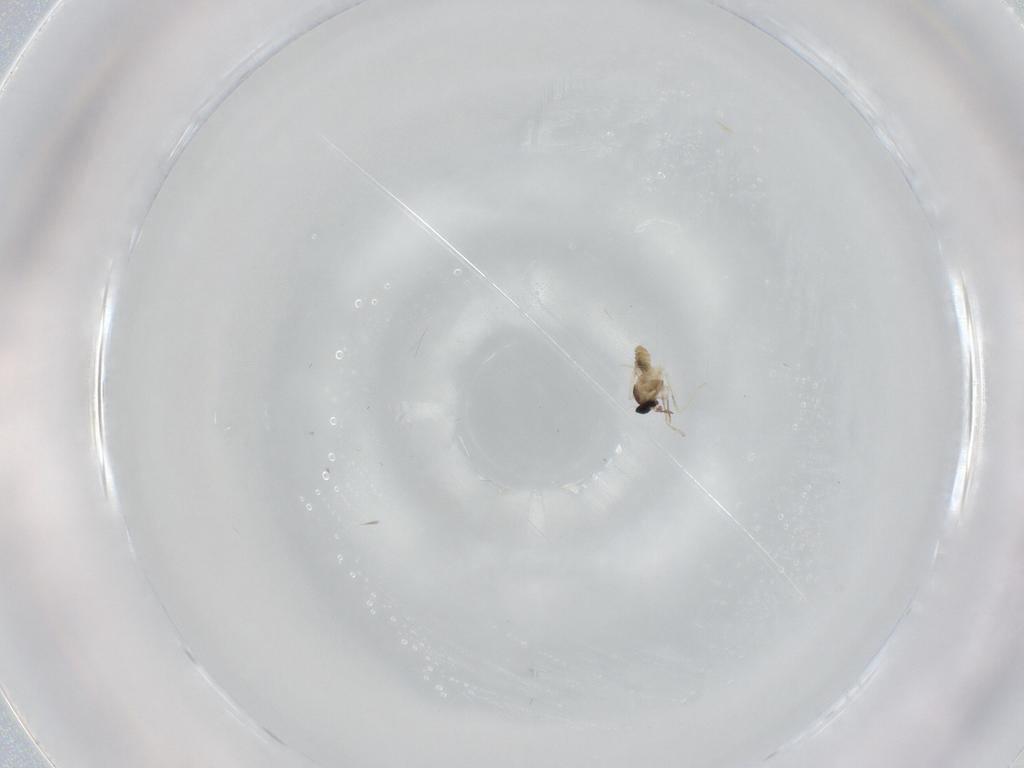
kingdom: Animalia
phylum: Arthropoda
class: Insecta
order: Diptera
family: Cecidomyiidae
